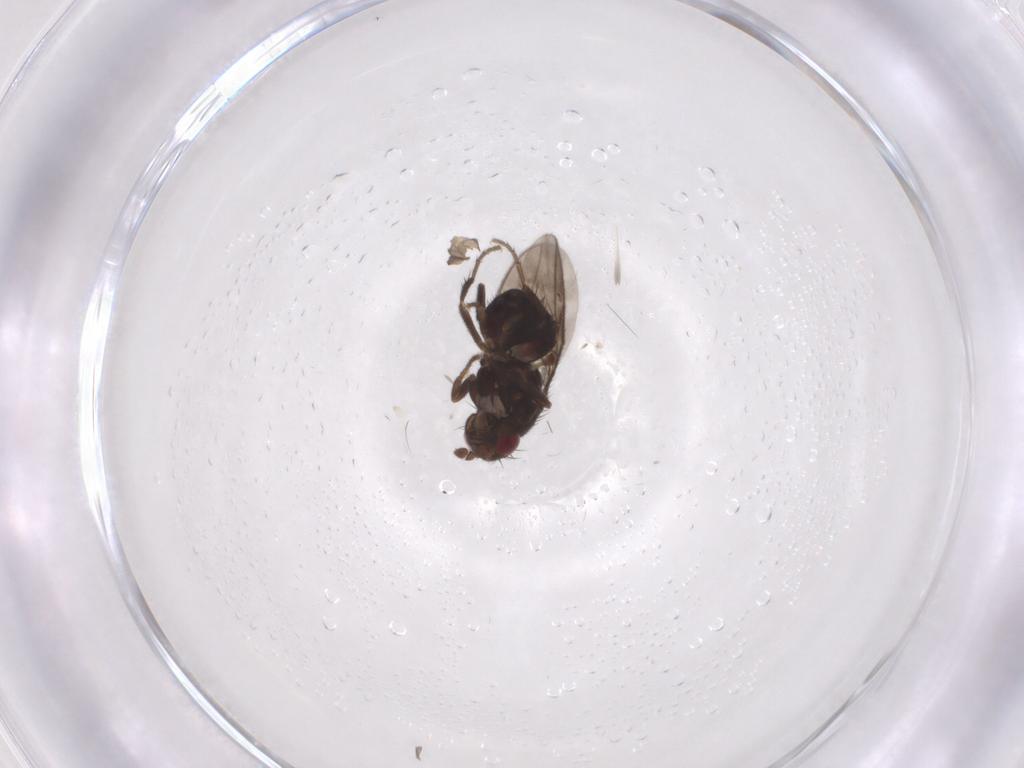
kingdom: Animalia
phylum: Arthropoda
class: Insecta
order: Diptera
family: Sphaeroceridae
